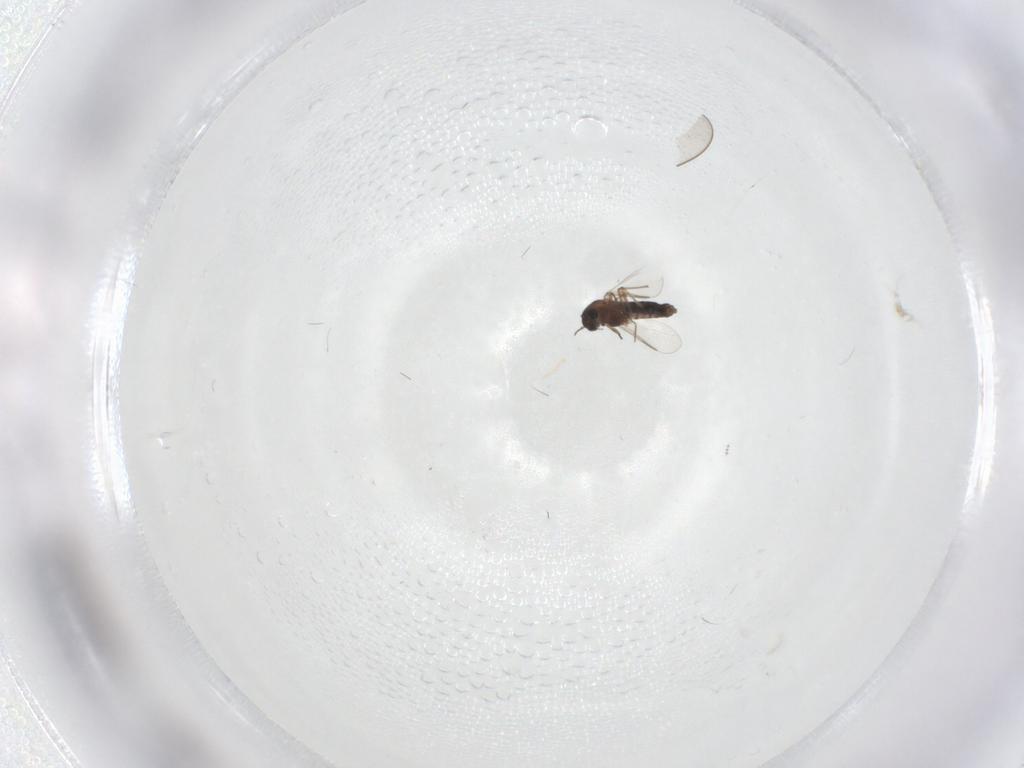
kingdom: Animalia
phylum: Arthropoda
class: Insecta
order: Diptera
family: Chironomidae
